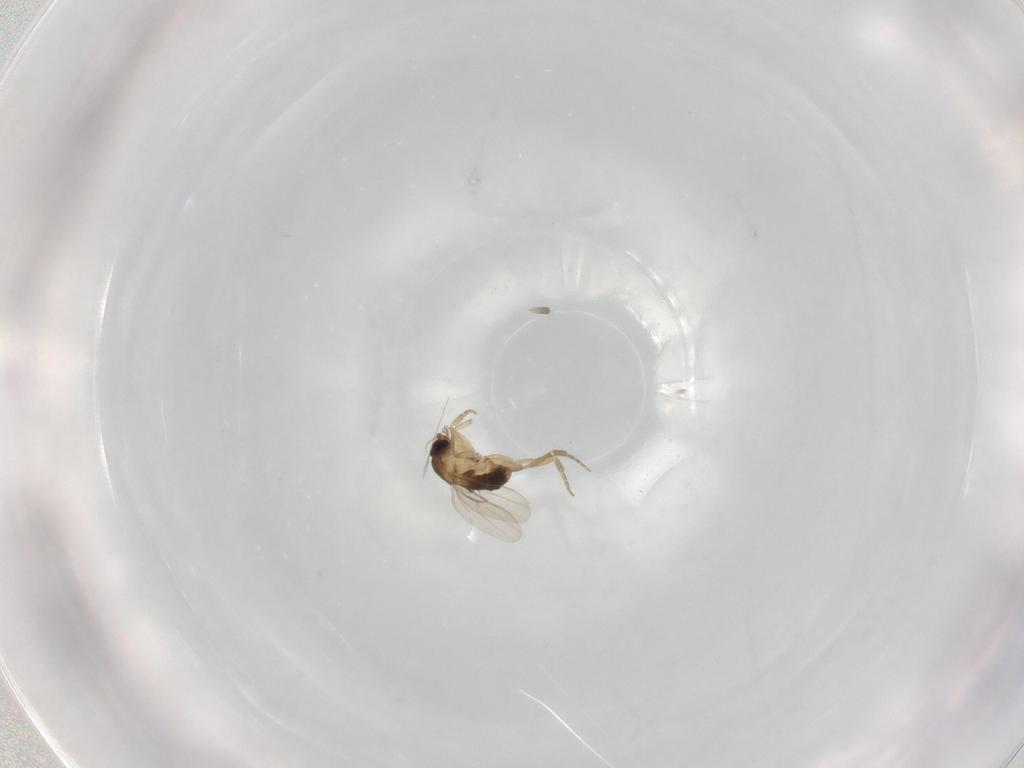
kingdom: Animalia
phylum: Arthropoda
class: Insecta
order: Diptera
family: Phoridae
